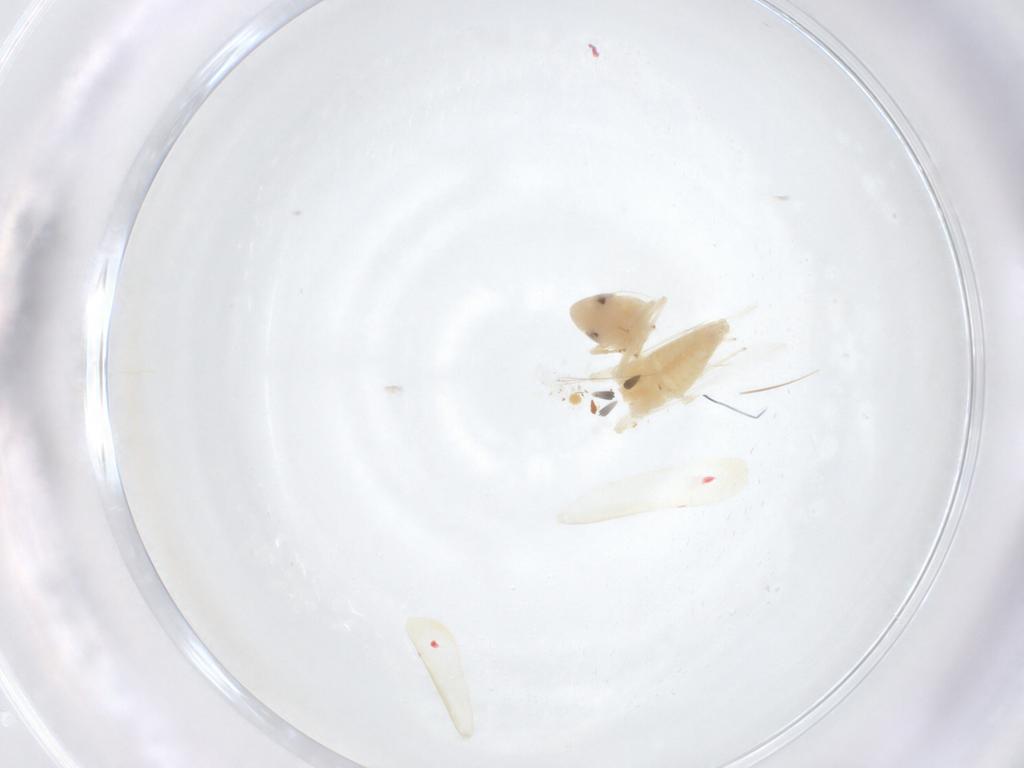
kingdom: Animalia
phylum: Arthropoda
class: Insecta
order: Hemiptera
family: Cicadellidae
